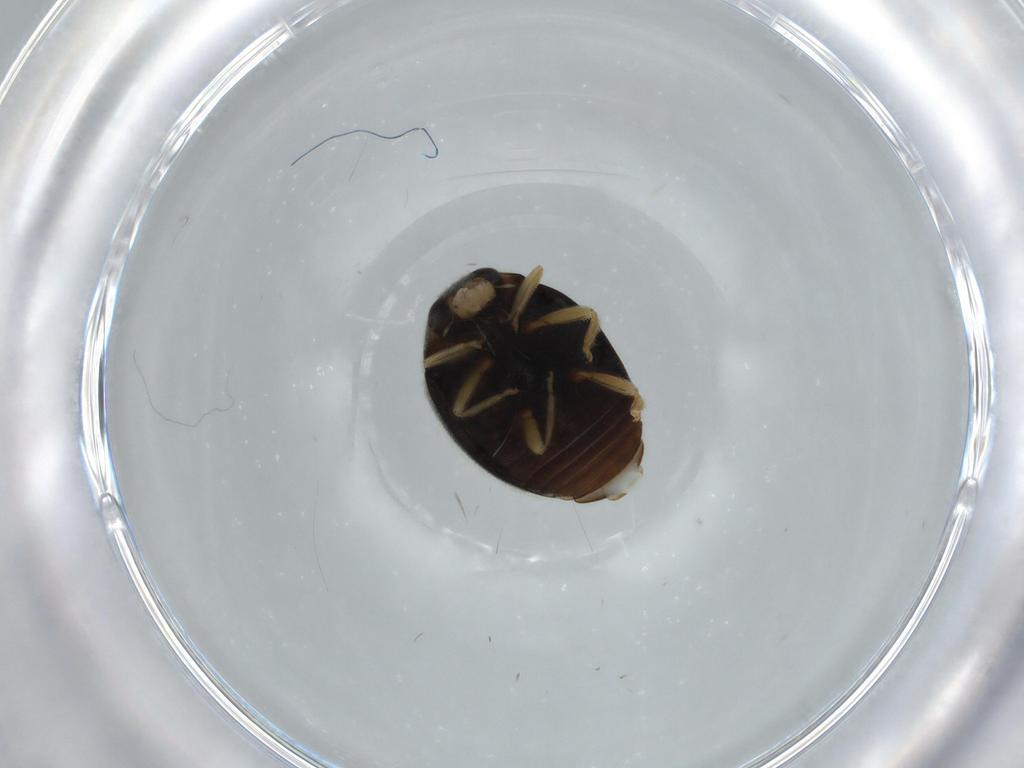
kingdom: Animalia
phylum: Arthropoda
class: Insecta
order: Coleoptera
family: Coccinellidae
